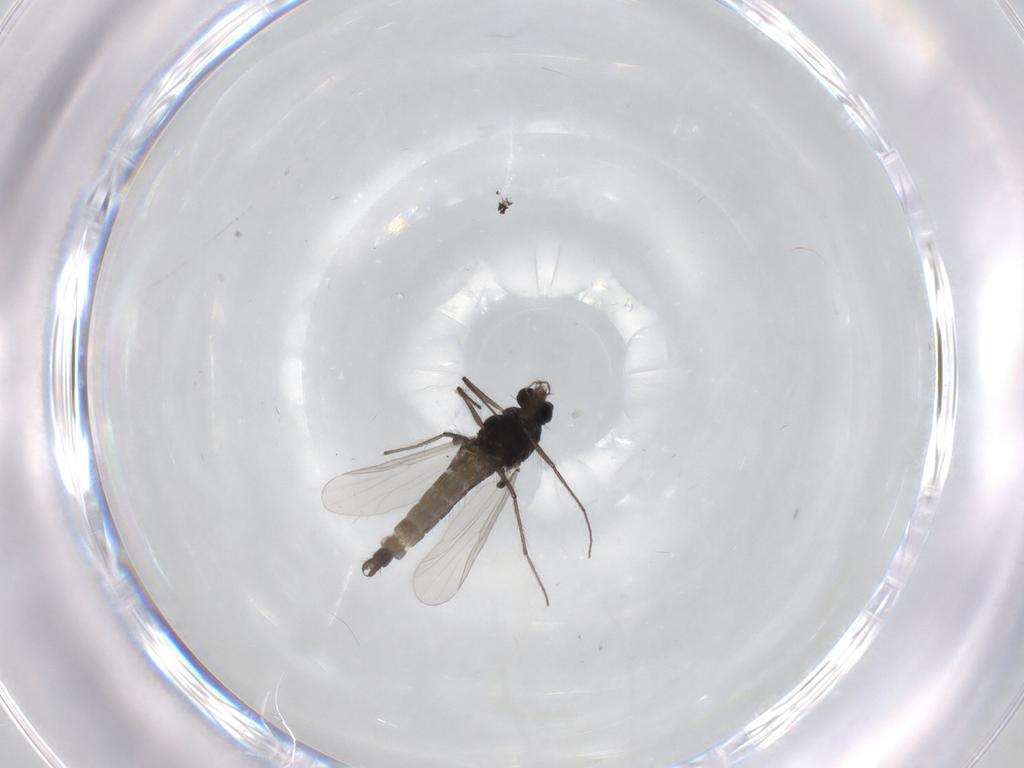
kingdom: Animalia
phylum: Arthropoda
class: Insecta
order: Diptera
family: Chironomidae
